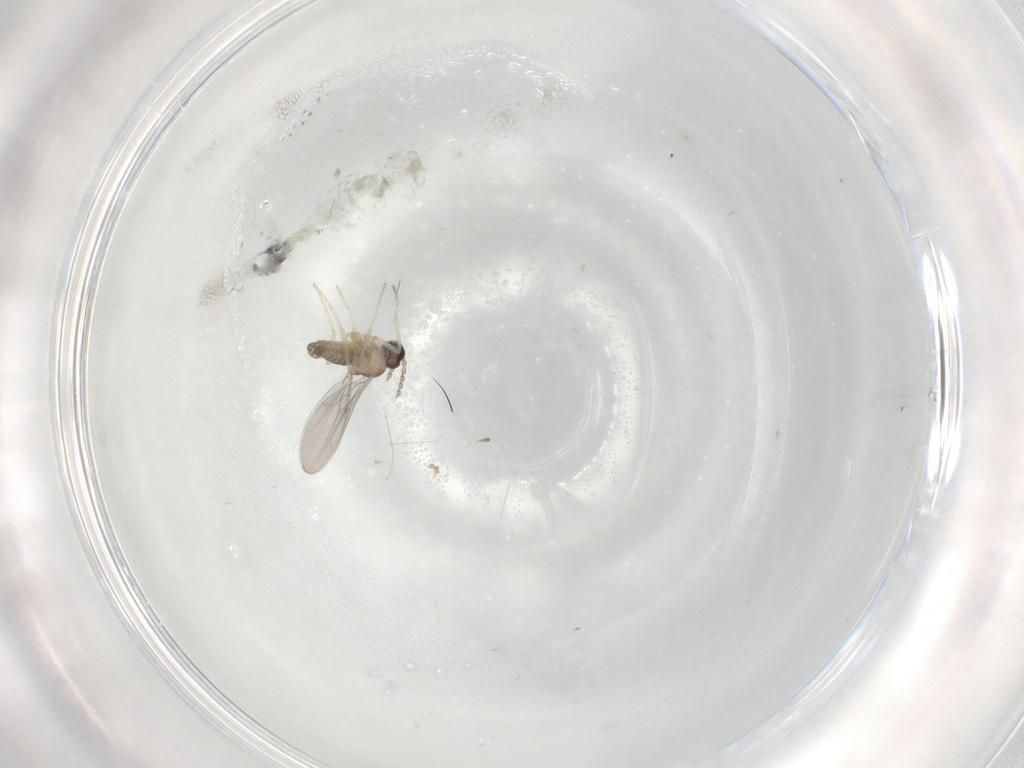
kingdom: Animalia
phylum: Arthropoda
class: Insecta
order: Diptera
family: Cecidomyiidae
